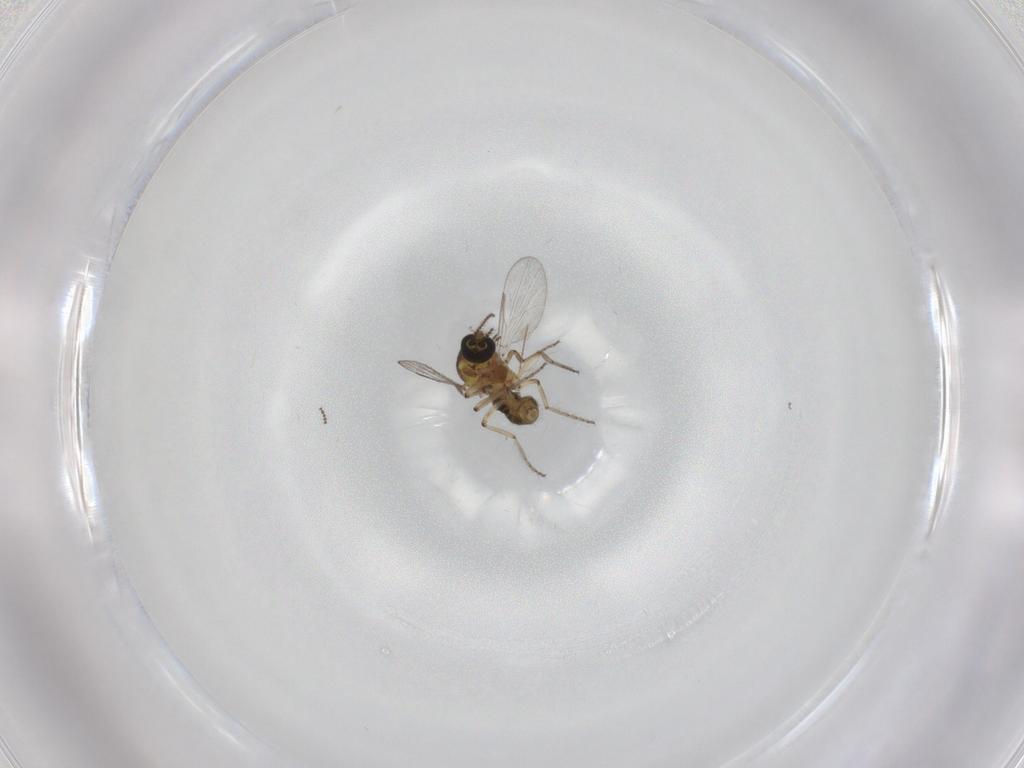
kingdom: Animalia
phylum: Arthropoda
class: Insecta
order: Diptera
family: Ceratopogonidae
